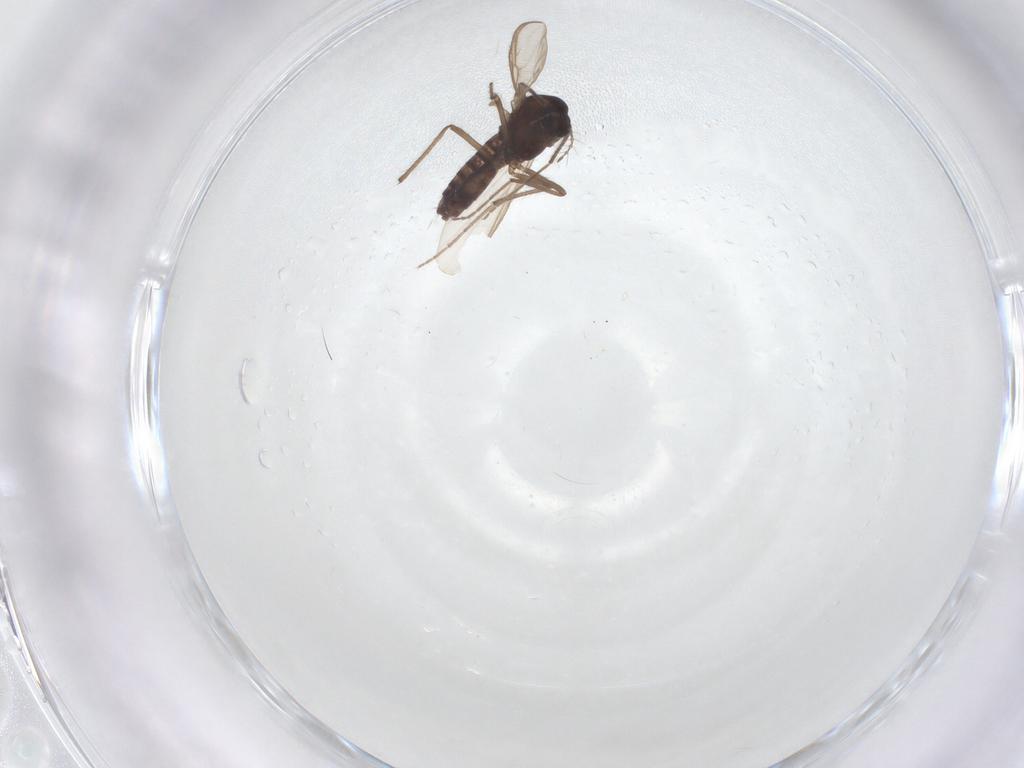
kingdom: Animalia
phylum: Arthropoda
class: Insecta
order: Diptera
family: Chironomidae
